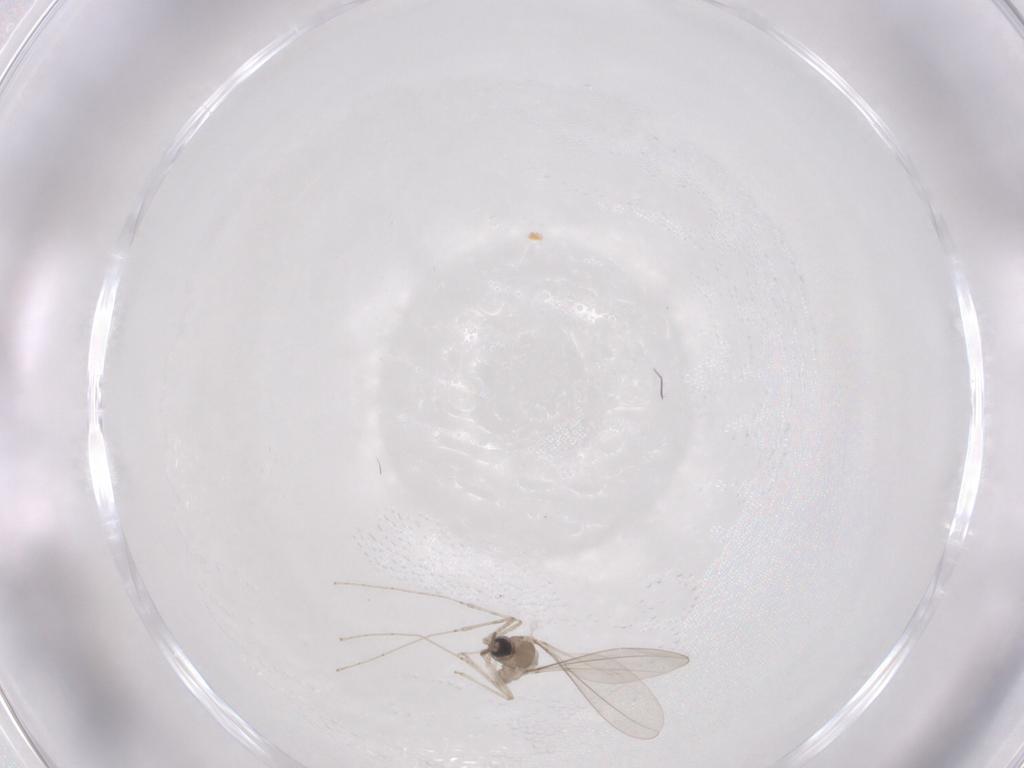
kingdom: Animalia
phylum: Arthropoda
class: Insecta
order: Diptera
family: Cecidomyiidae
